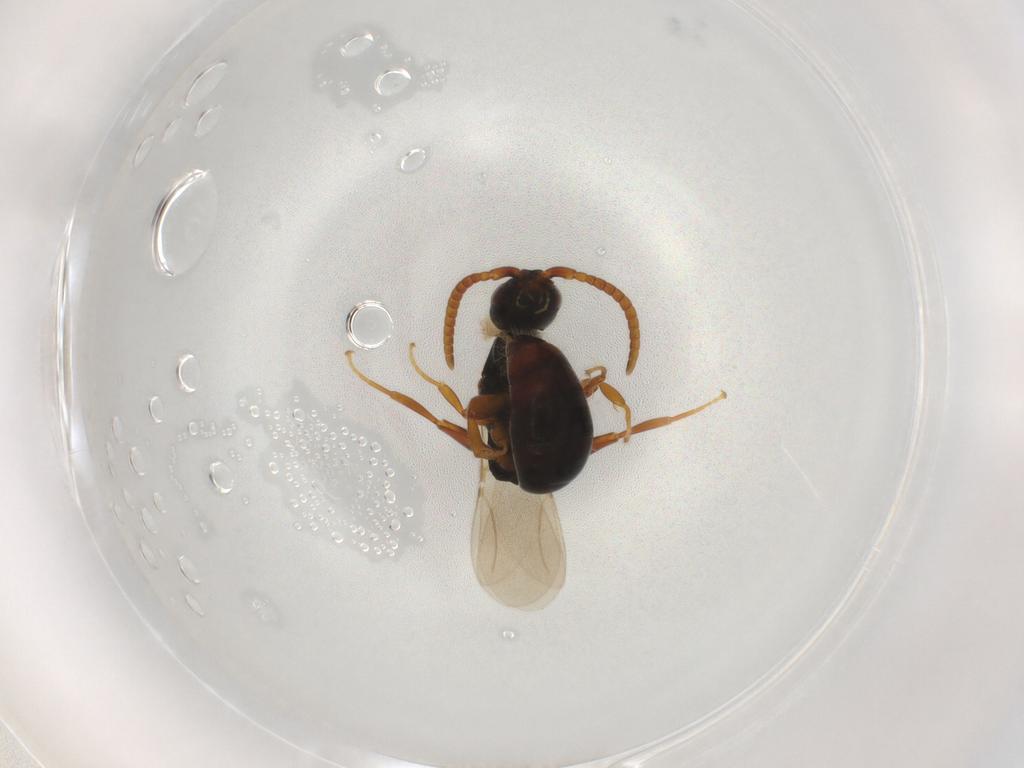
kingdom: Animalia
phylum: Arthropoda
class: Insecta
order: Hymenoptera
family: Bethylidae
